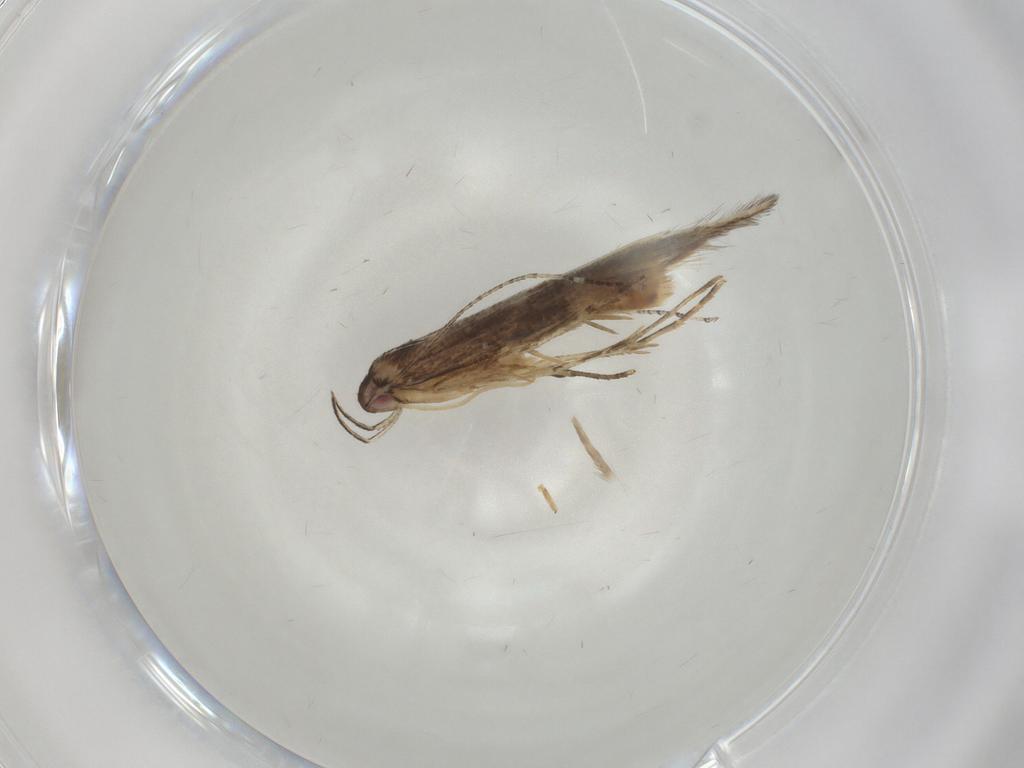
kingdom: Animalia
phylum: Arthropoda
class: Insecta
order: Lepidoptera
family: Cosmopterigidae
